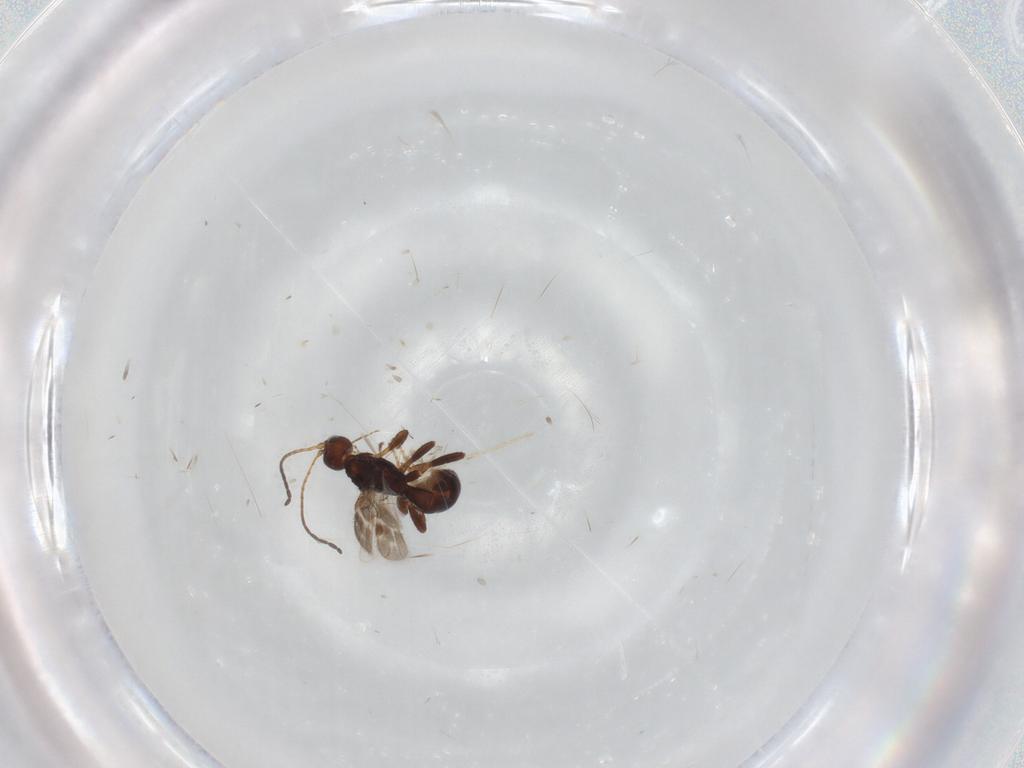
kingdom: Animalia
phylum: Arthropoda
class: Insecta
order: Hymenoptera
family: Braconidae
